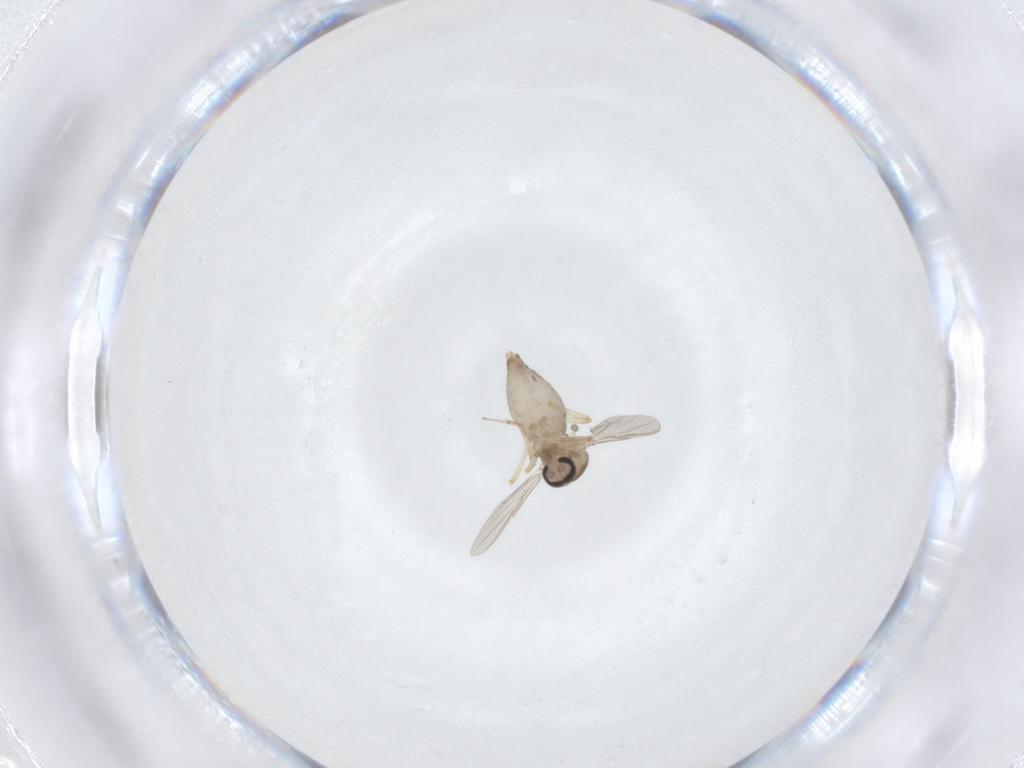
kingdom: Animalia
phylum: Arthropoda
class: Insecta
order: Diptera
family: Ceratopogonidae
